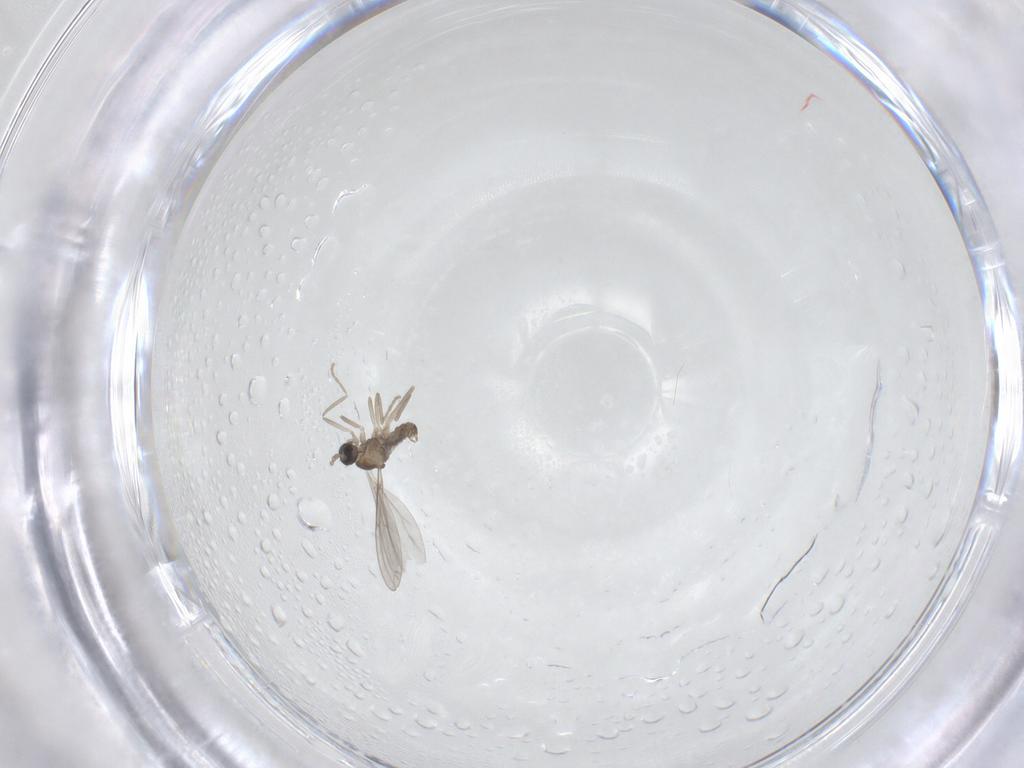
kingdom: Animalia
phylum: Arthropoda
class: Insecta
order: Diptera
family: Cecidomyiidae
